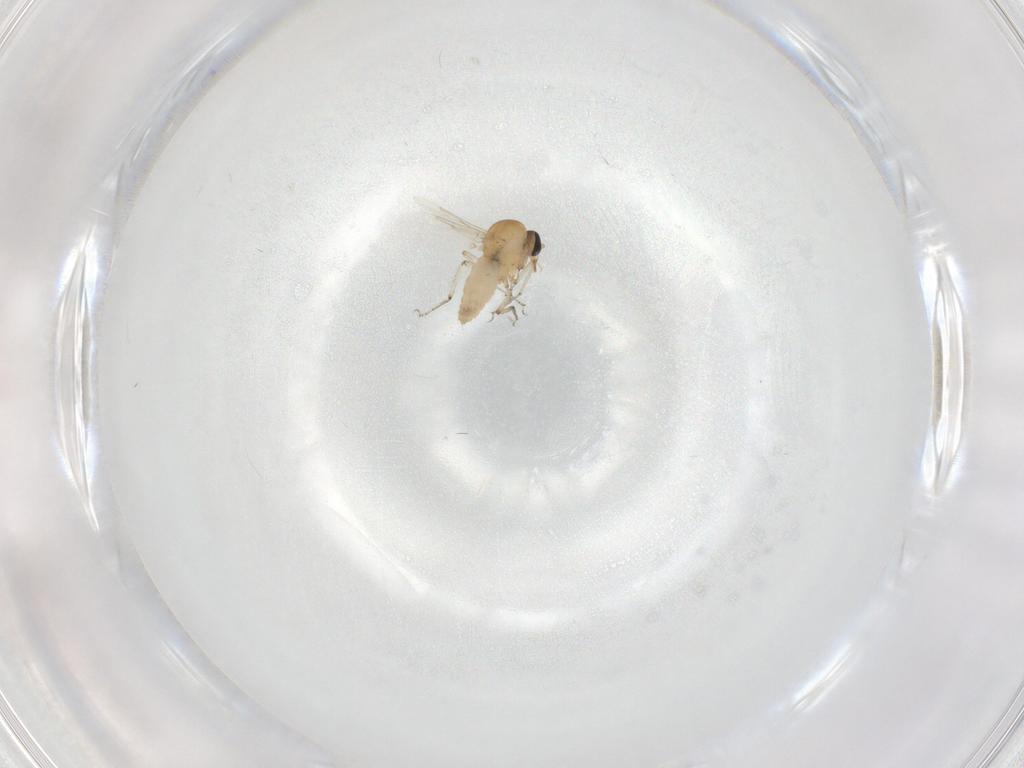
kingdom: Animalia
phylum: Arthropoda
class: Insecta
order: Diptera
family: Ceratopogonidae
